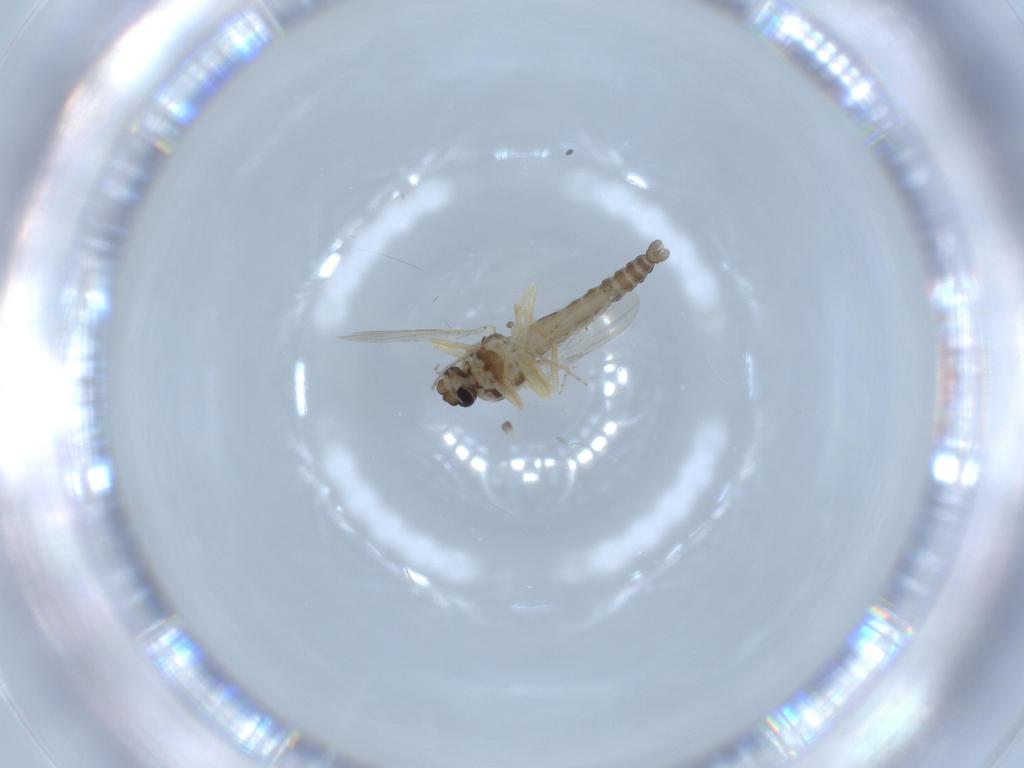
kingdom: Animalia
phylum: Arthropoda
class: Insecta
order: Diptera
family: Ceratopogonidae
